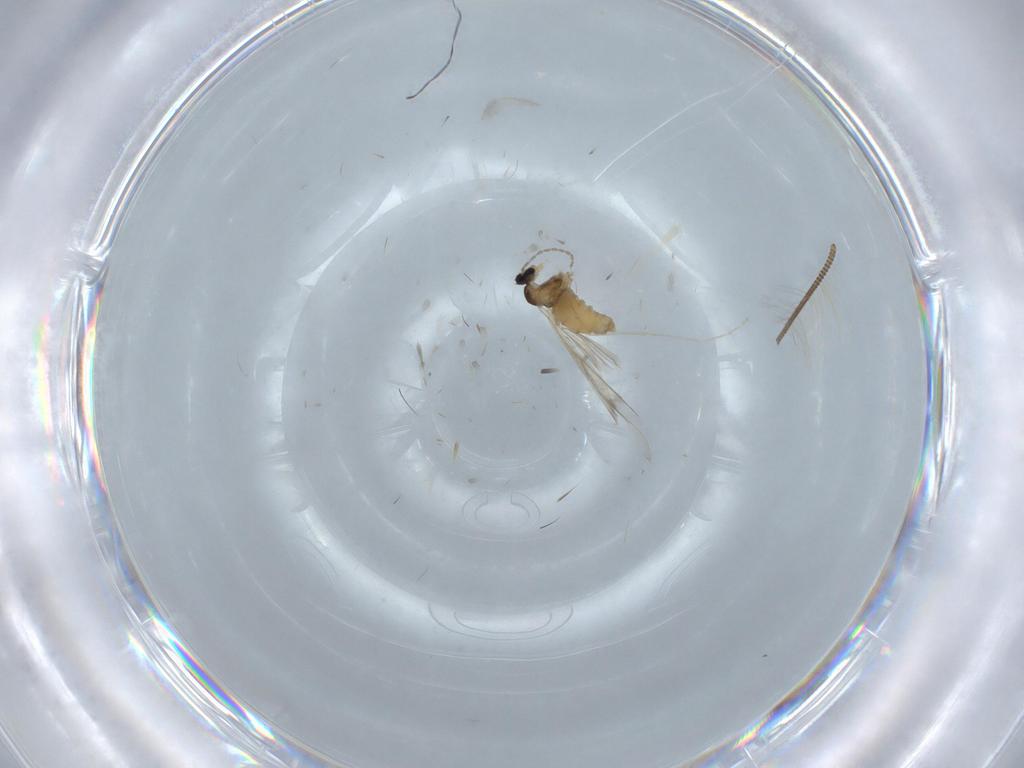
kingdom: Animalia
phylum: Arthropoda
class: Insecta
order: Diptera
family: Cecidomyiidae
